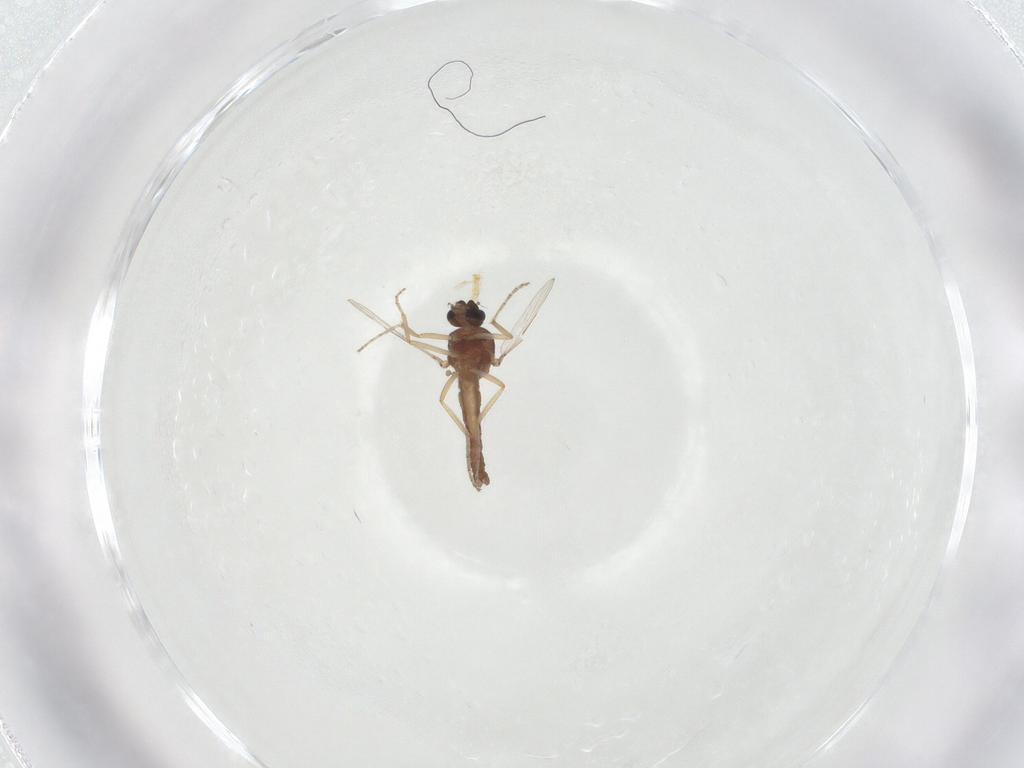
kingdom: Animalia
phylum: Arthropoda
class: Insecta
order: Diptera
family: Ceratopogonidae
